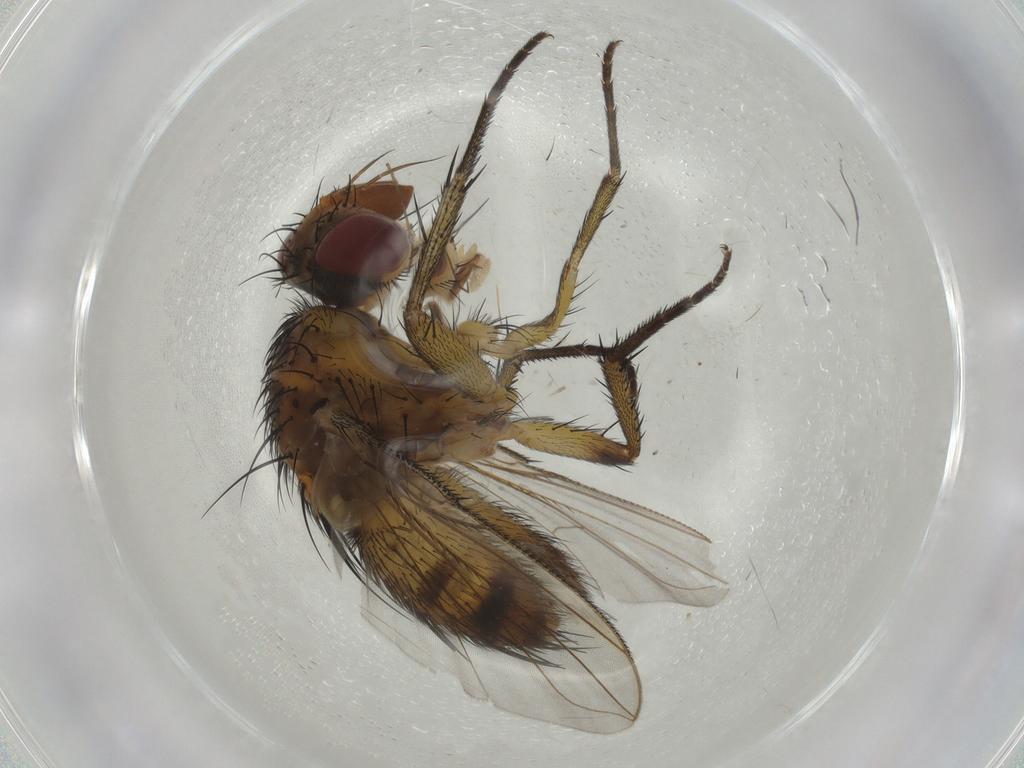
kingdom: Animalia
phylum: Arthropoda
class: Insecta
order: Diptera
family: Tachinidae
